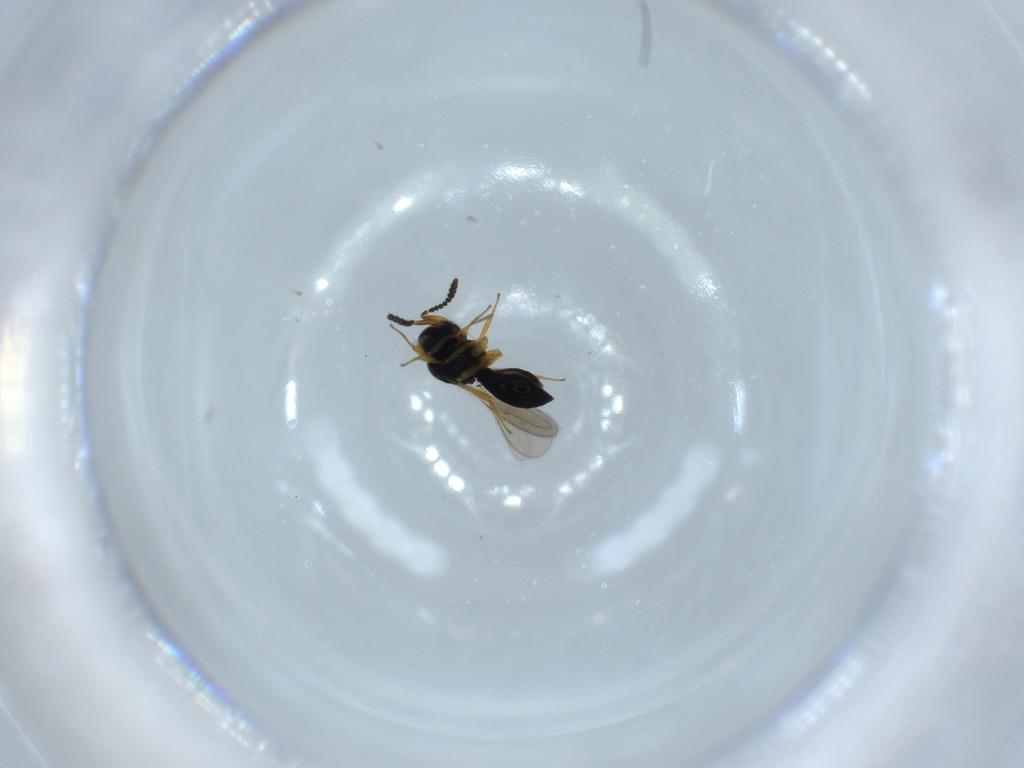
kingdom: Animalia
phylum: Arthropoda
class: Insecta
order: Hymenoptera
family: Scelionidae
